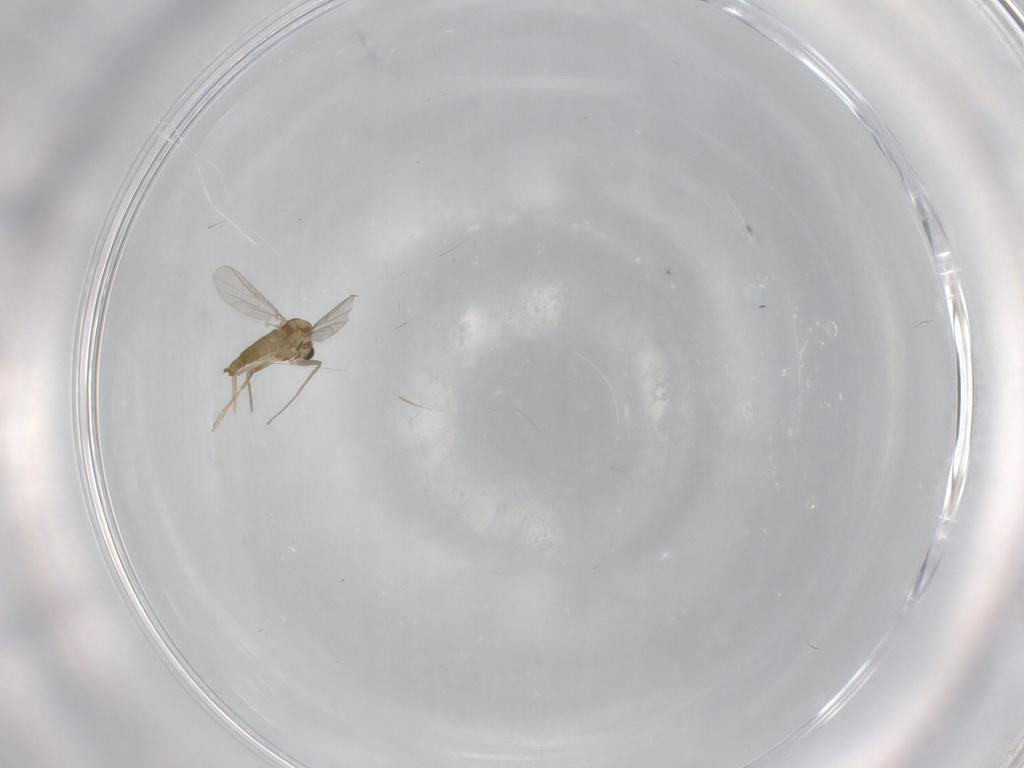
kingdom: Animalia
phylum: Arthropoda
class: Insecta
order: Diptera
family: Chironomidae
